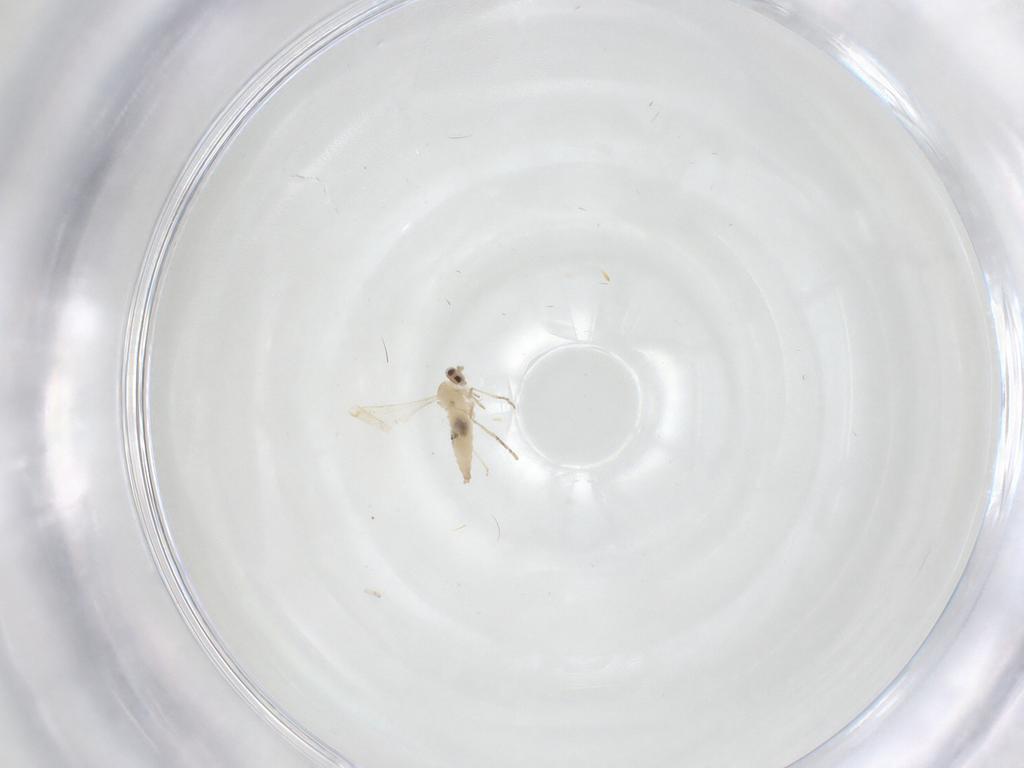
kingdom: Animalia
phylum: Arthropoda
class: Insecta
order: Diptera
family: Cecidomyiidae
